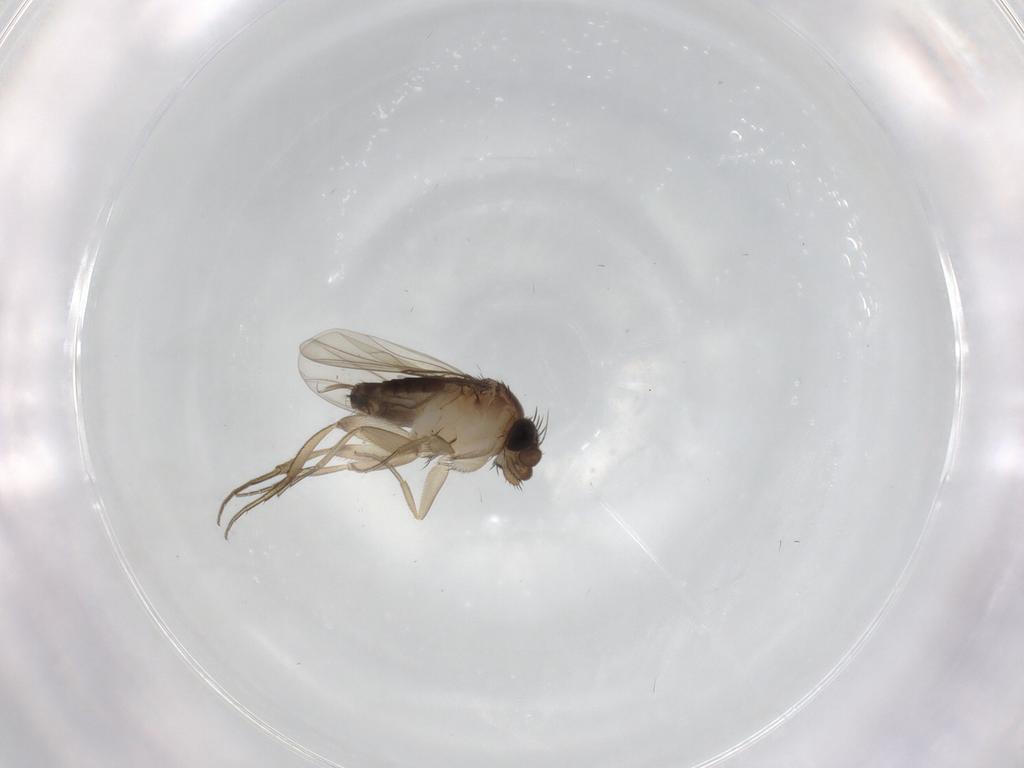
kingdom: Animalia
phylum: Arthropoda
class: Insecta
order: Diptera
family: Phoridae
